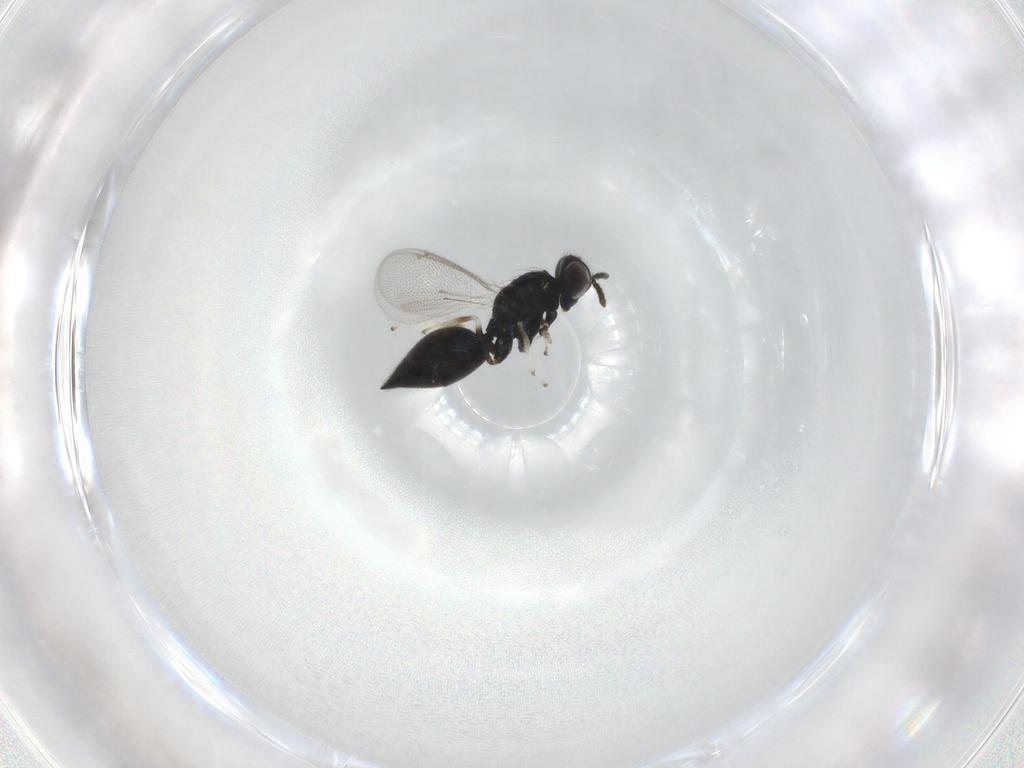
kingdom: Animalia
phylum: Arthropoda
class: Insecta
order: Hymenoptera
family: Eulophidae
